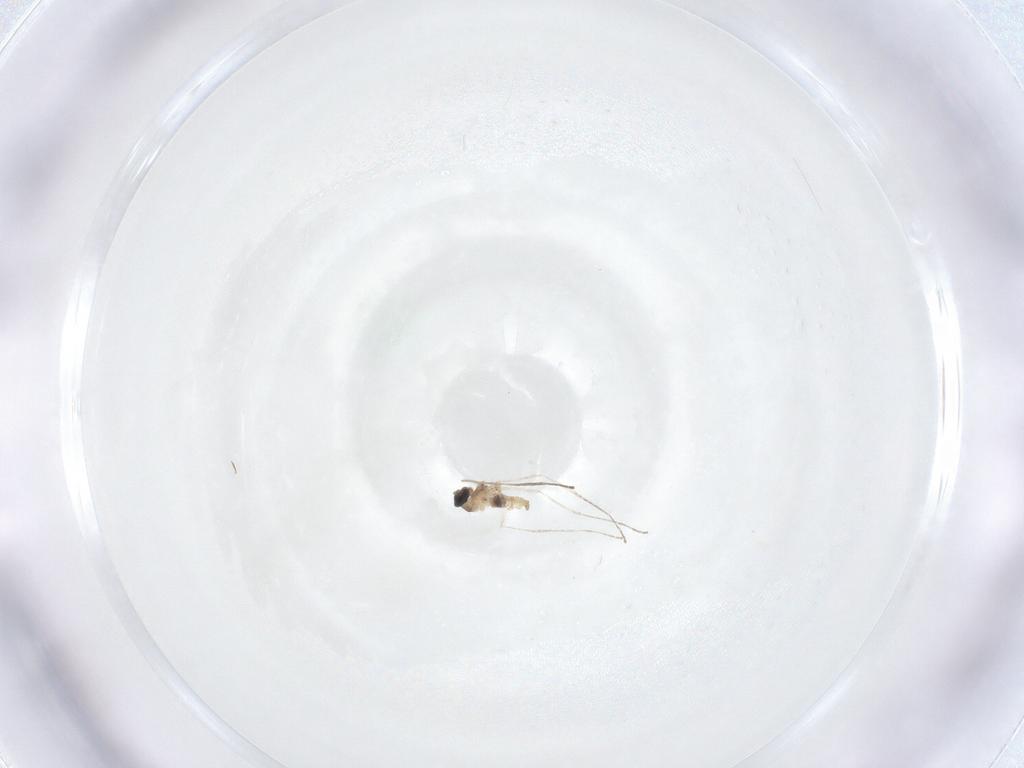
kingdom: Animalia
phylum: Arthropoda
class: Insecta
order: Diptera
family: Cecidomyiidae
